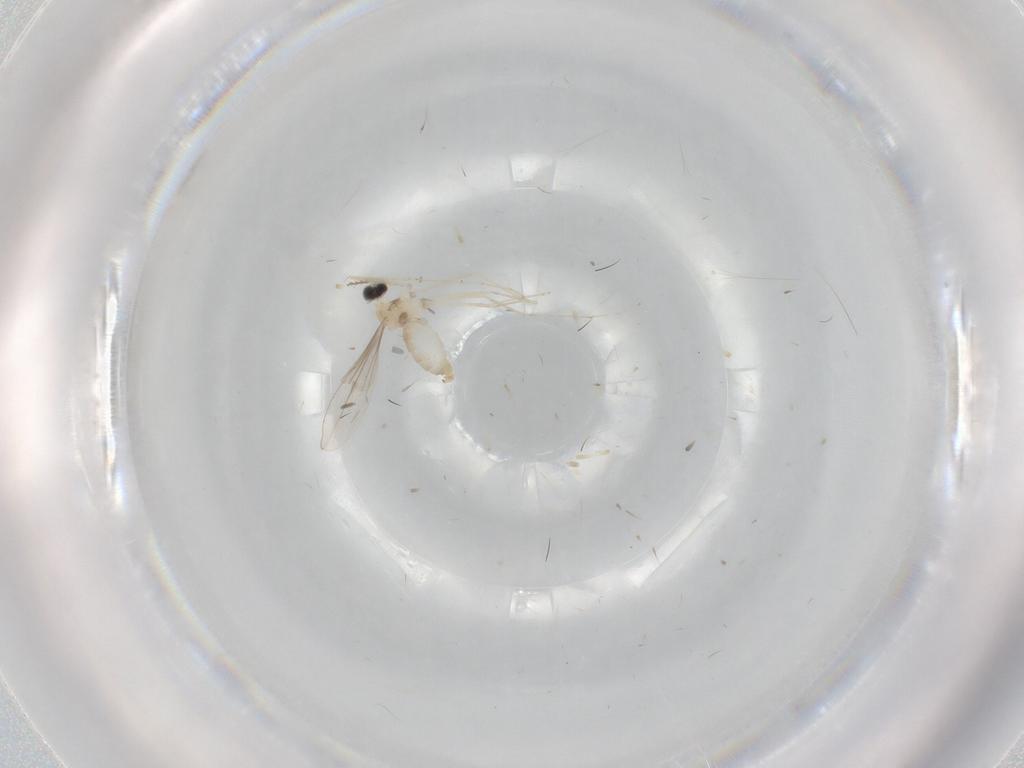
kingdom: Animalia
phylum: Arthropoda
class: Insecta
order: Diptera
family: Cecidomyiidae
